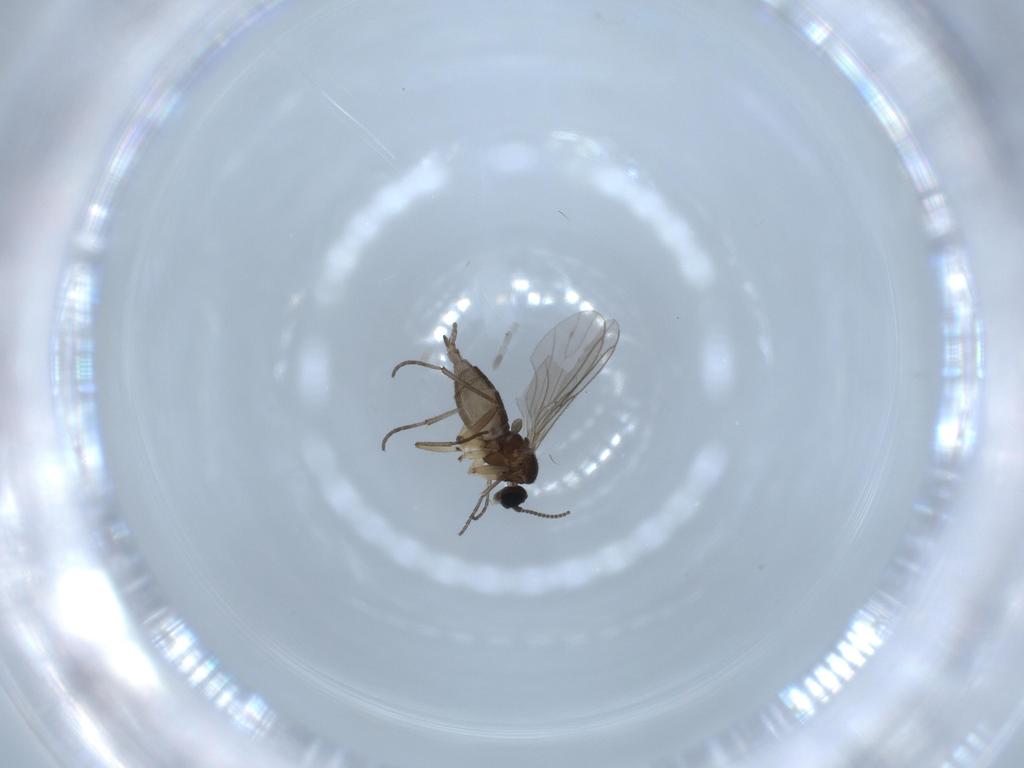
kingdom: Animalia
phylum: Arthropoda
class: Insecta
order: Diptera
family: Sciaridae
